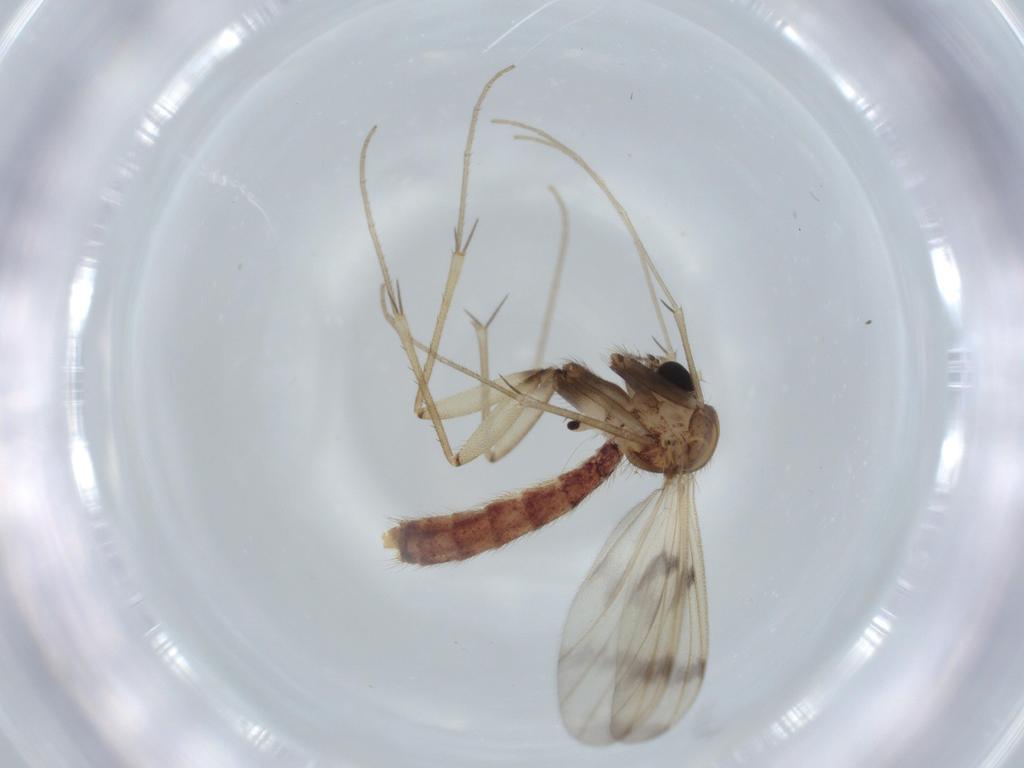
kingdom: Animalia
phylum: Arthropoda
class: Insecta
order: Diptera
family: Mycetophilidae
